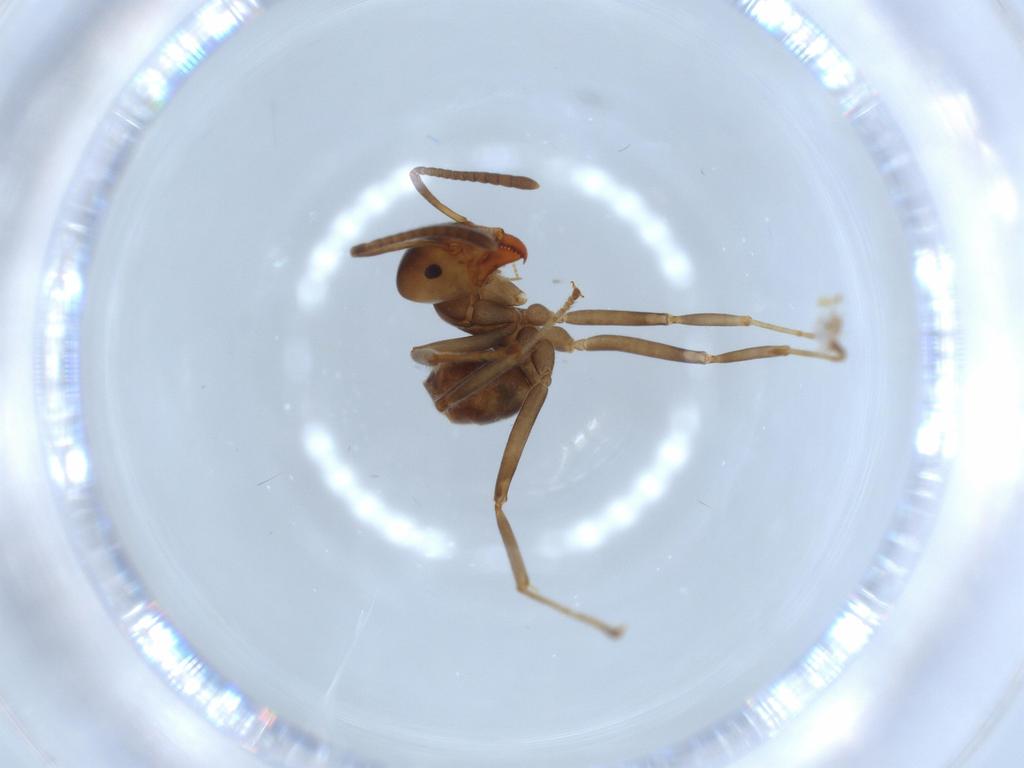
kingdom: Animalia
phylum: Arthropoda
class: Insecta
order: Hymenoptera
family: Formicidae
